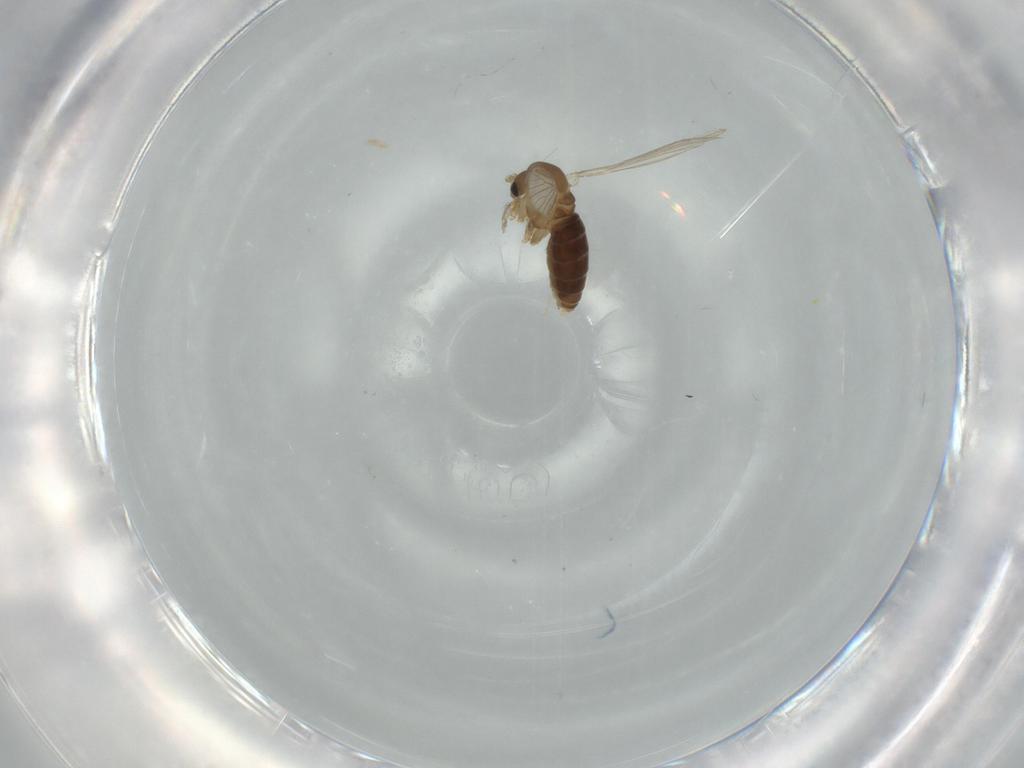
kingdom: Animalia
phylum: Arthropoda
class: Insecta
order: Diptera
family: Psychodidae
